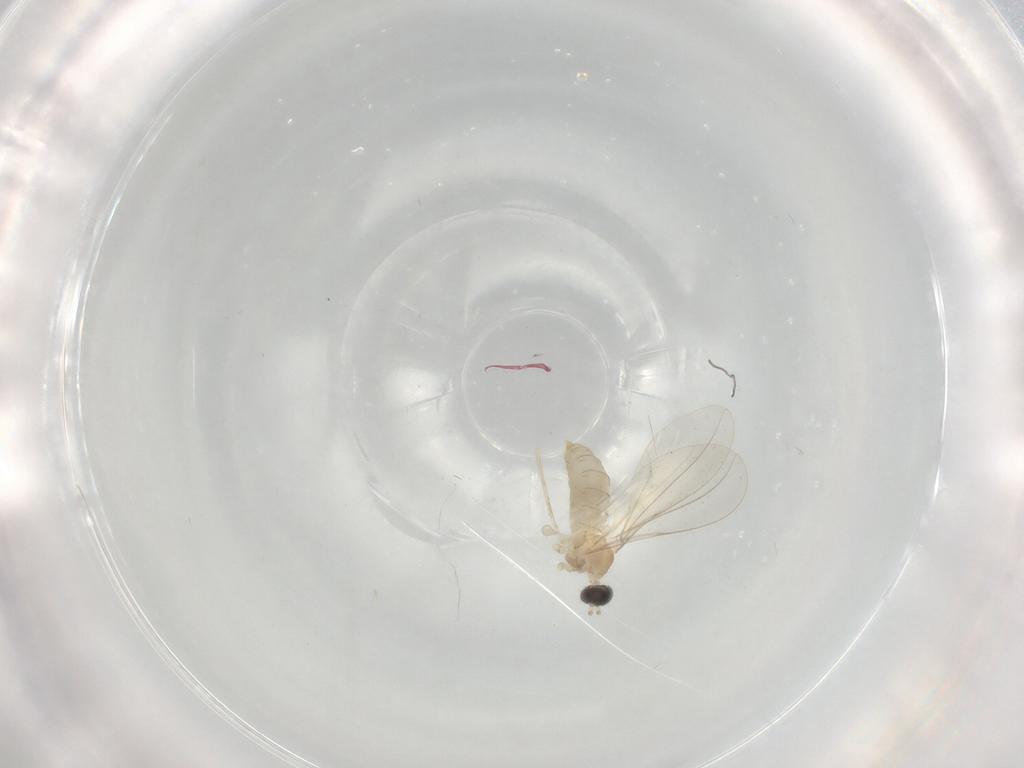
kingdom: Animalia
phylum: Arthropoda
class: Insecta
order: Diptera
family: Cecidomyiidae
